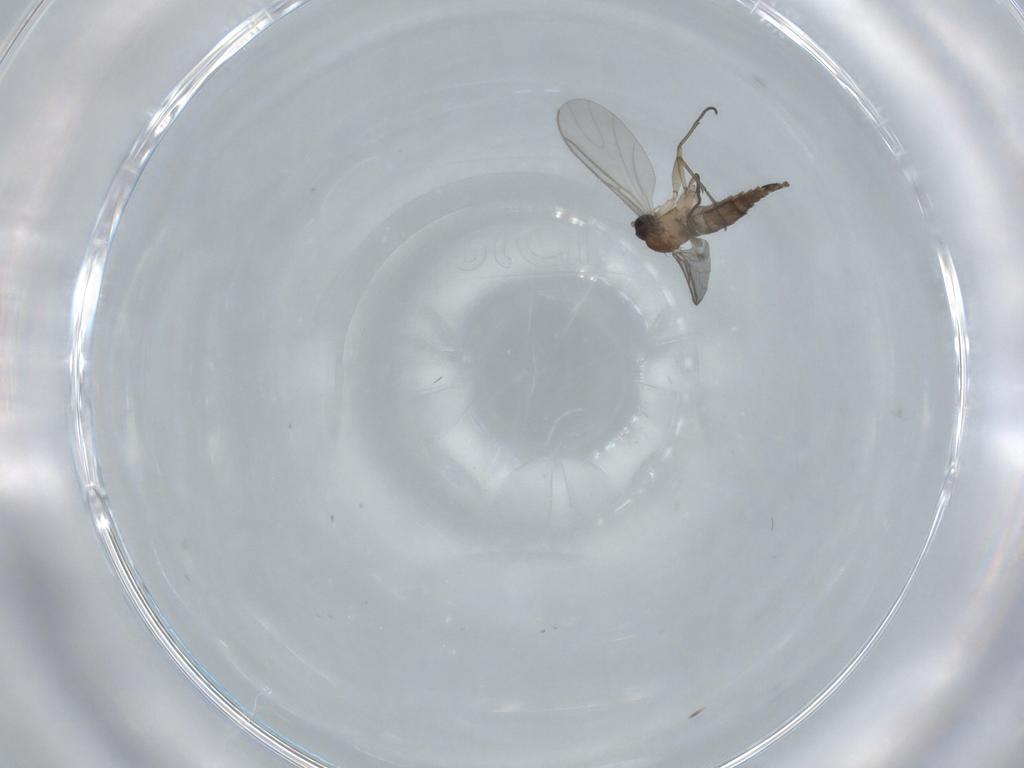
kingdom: Animalia
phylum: Arthropoda
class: Insecta
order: Diptera
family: Sciaridae
